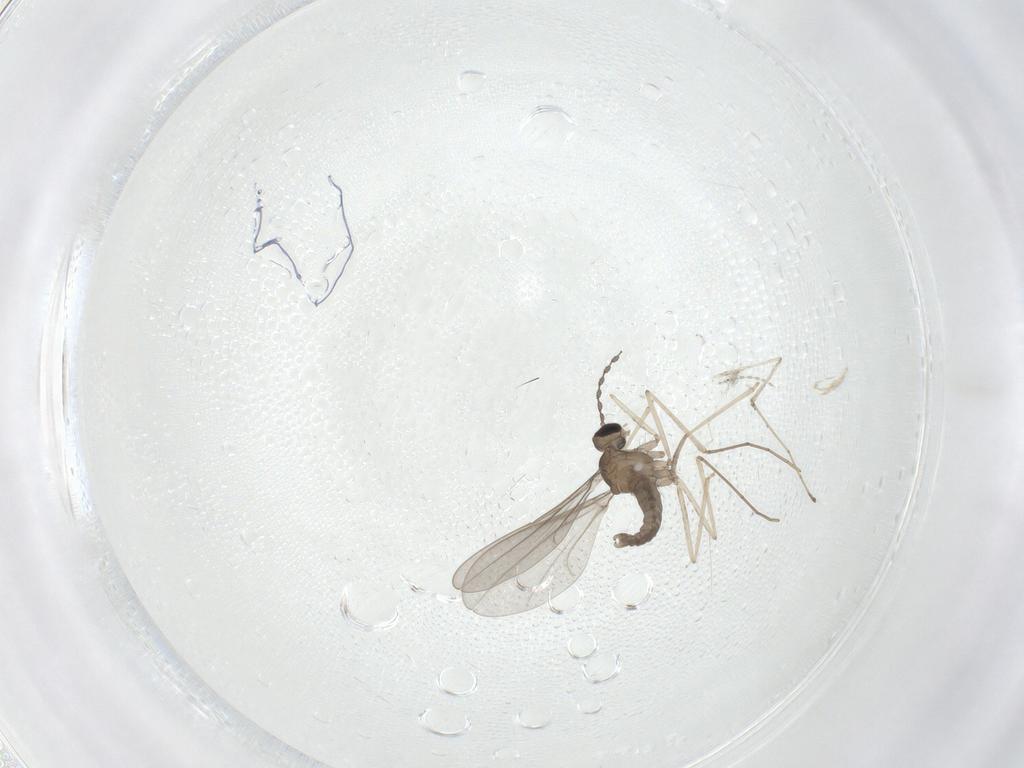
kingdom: Animalia
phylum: Arthropoda
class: Insecta
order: Diptera
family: Cecidomyiidae
